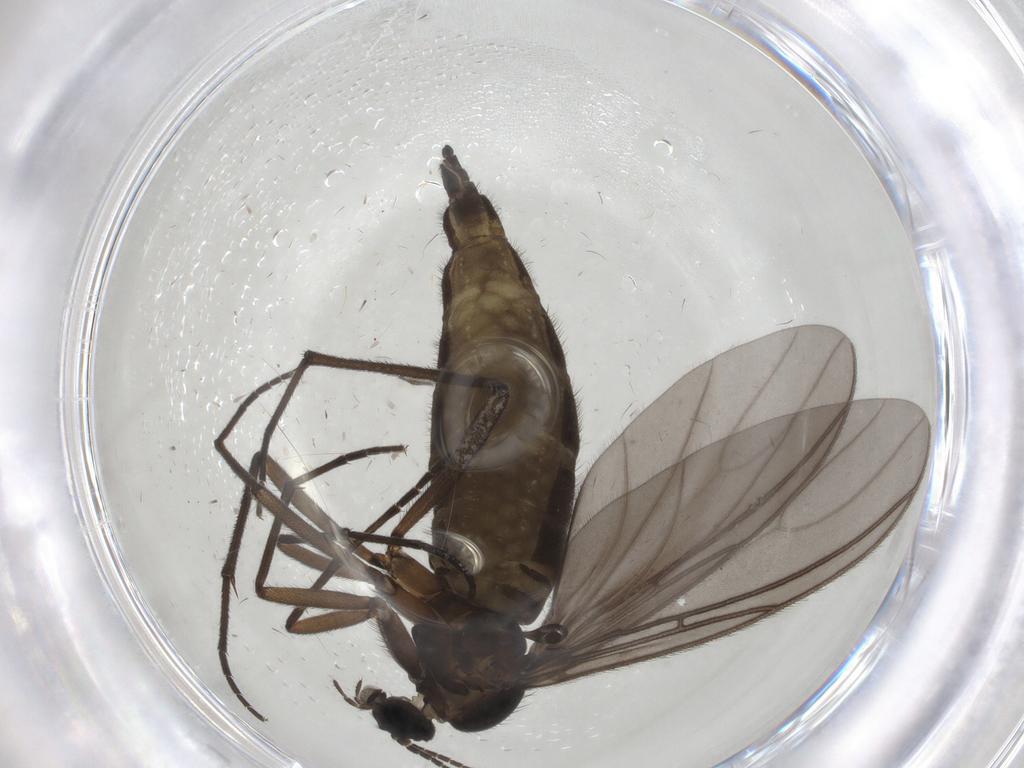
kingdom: Animalia
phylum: Arthropoda
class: Insecta
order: Diptera
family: Sciaridae
